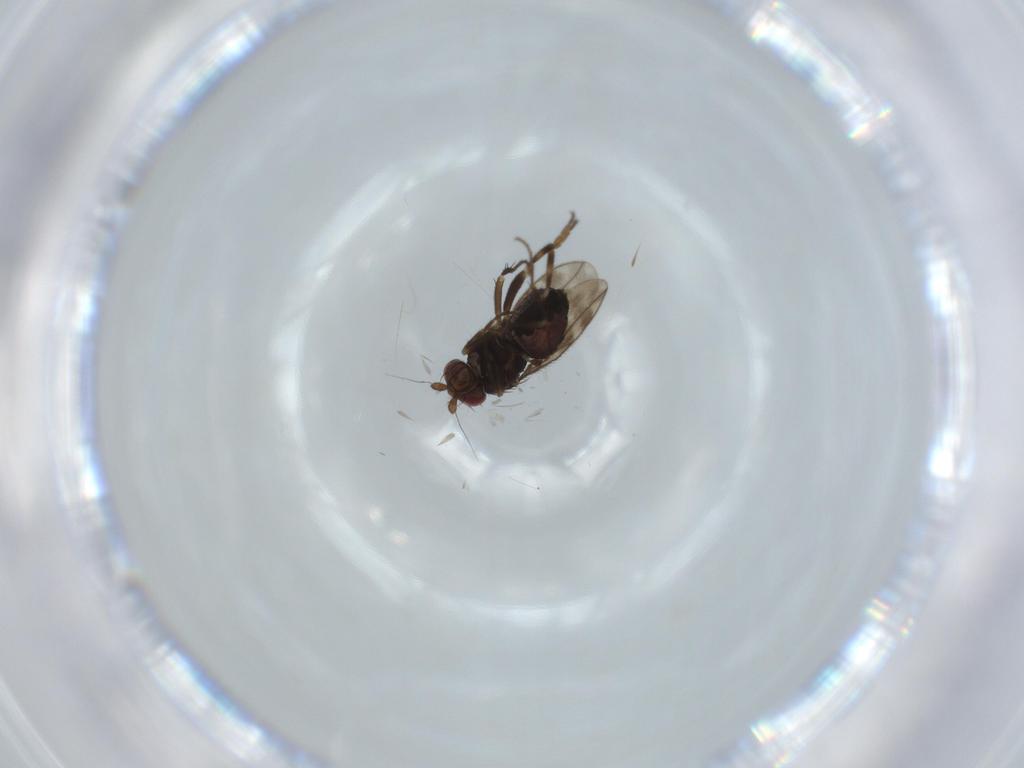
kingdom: Animalia
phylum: Arthropoda
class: Insecta
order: Diptera
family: Sphaeroceridae
